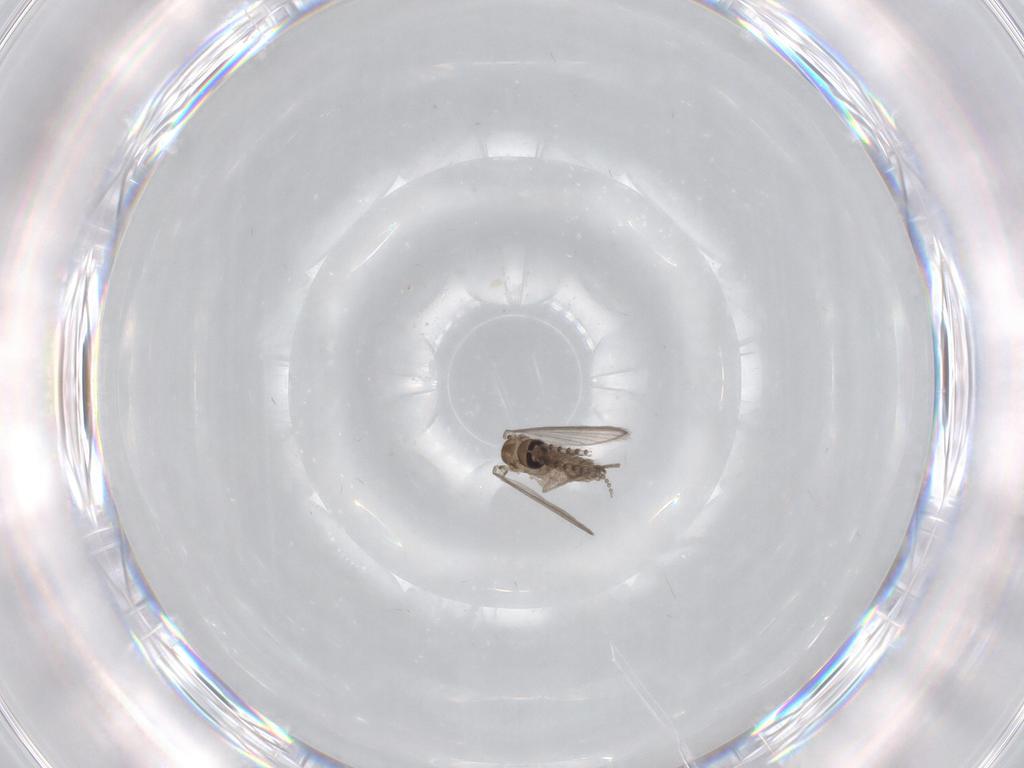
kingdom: Animalia
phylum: Arthropoda
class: Insecta
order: Diptera
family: Psychodidae
